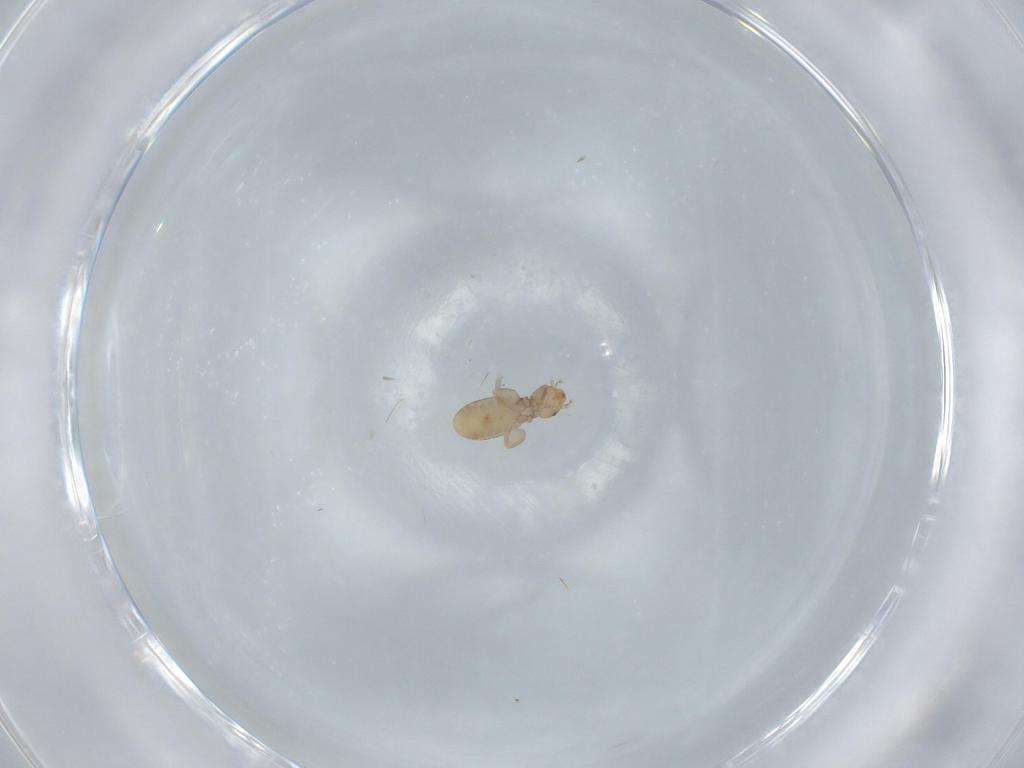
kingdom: Animalia
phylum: Arthropoda
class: Insecta
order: Psocodea
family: Liposcelididae
